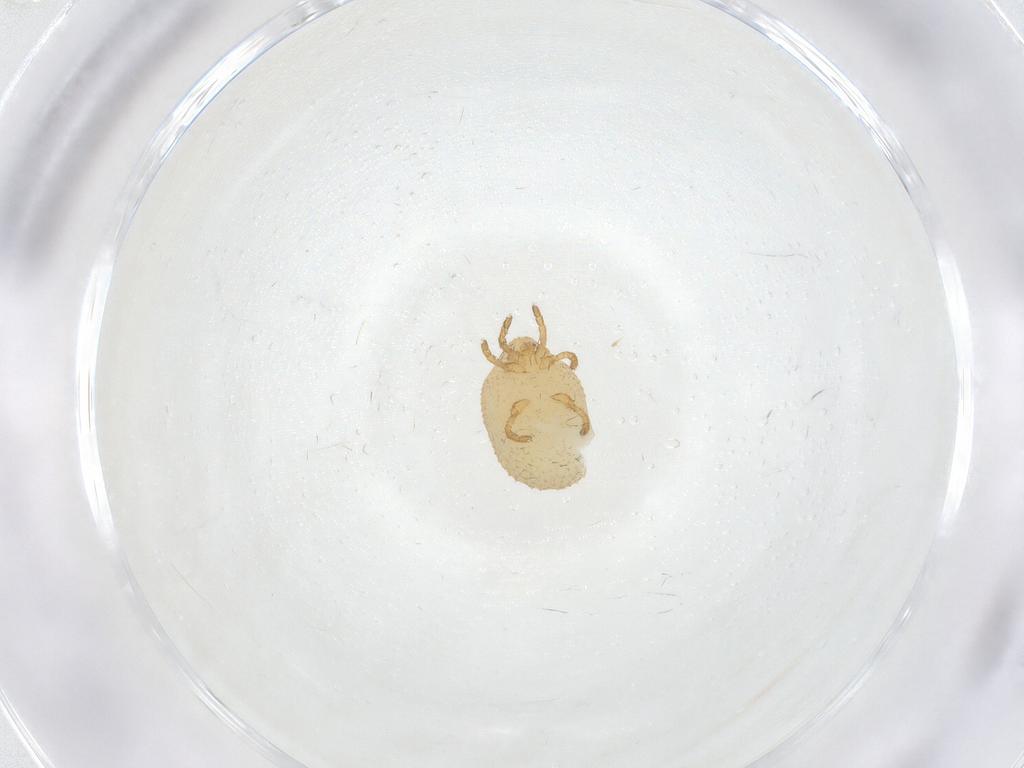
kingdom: Animalia
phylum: Arthropoda
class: Arachnida
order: Trombidiformes
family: Calyptostomatidae
